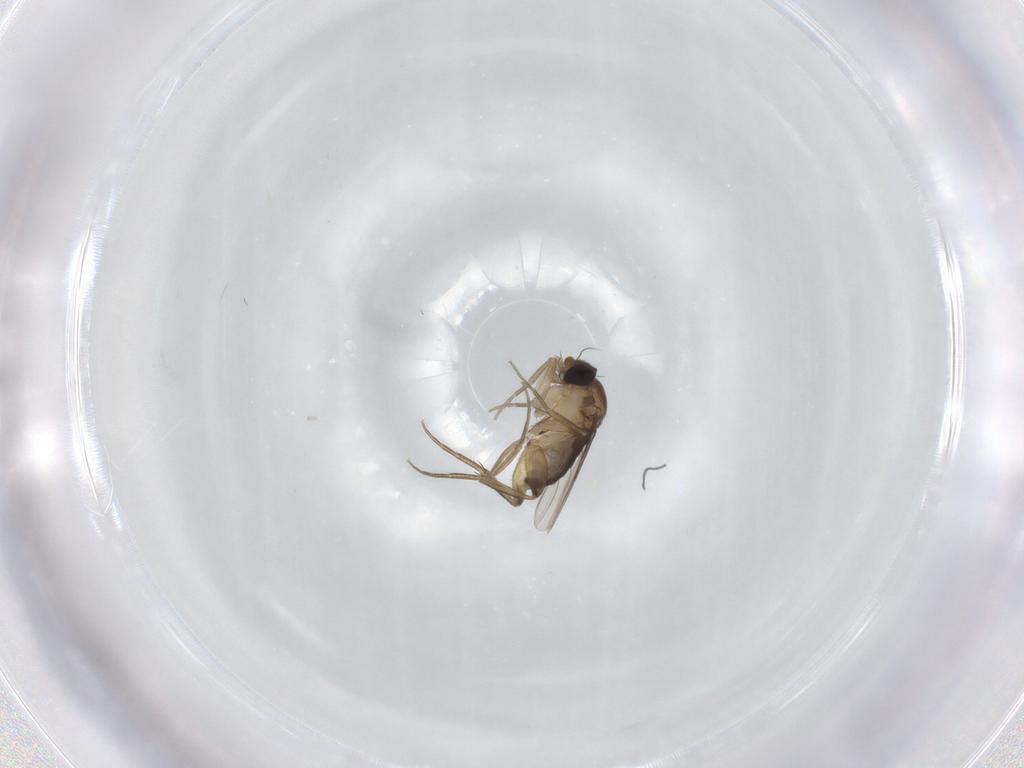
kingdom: Animalia
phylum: Arthropoda
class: Insecta
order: Diptera
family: Phoridae
